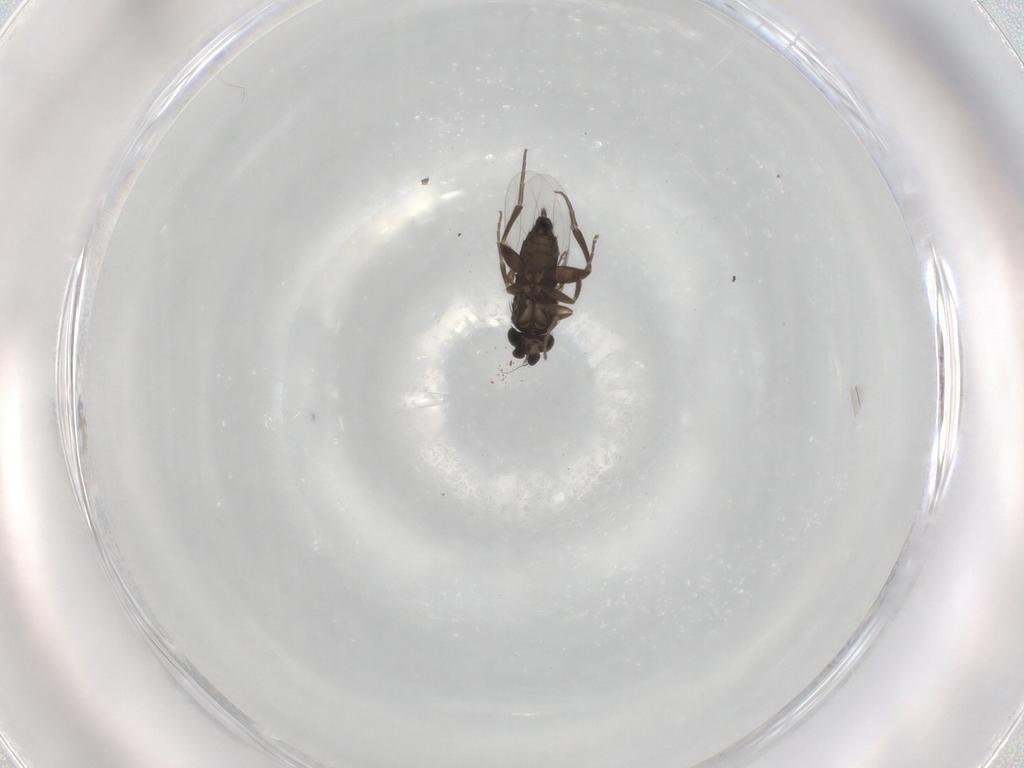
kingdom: Animalia
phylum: Arthropoda
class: Insecta
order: Diptera
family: Phoridae
